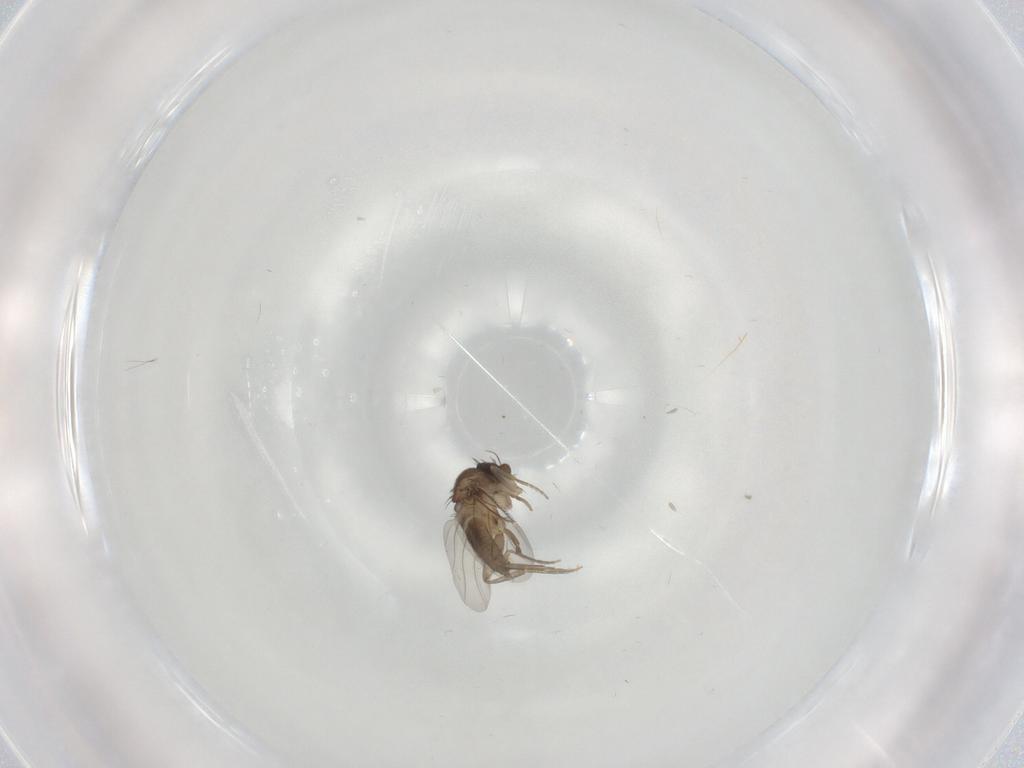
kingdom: Animalia
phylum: Arthropoda
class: Insecta
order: Diptera
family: Phoridae
